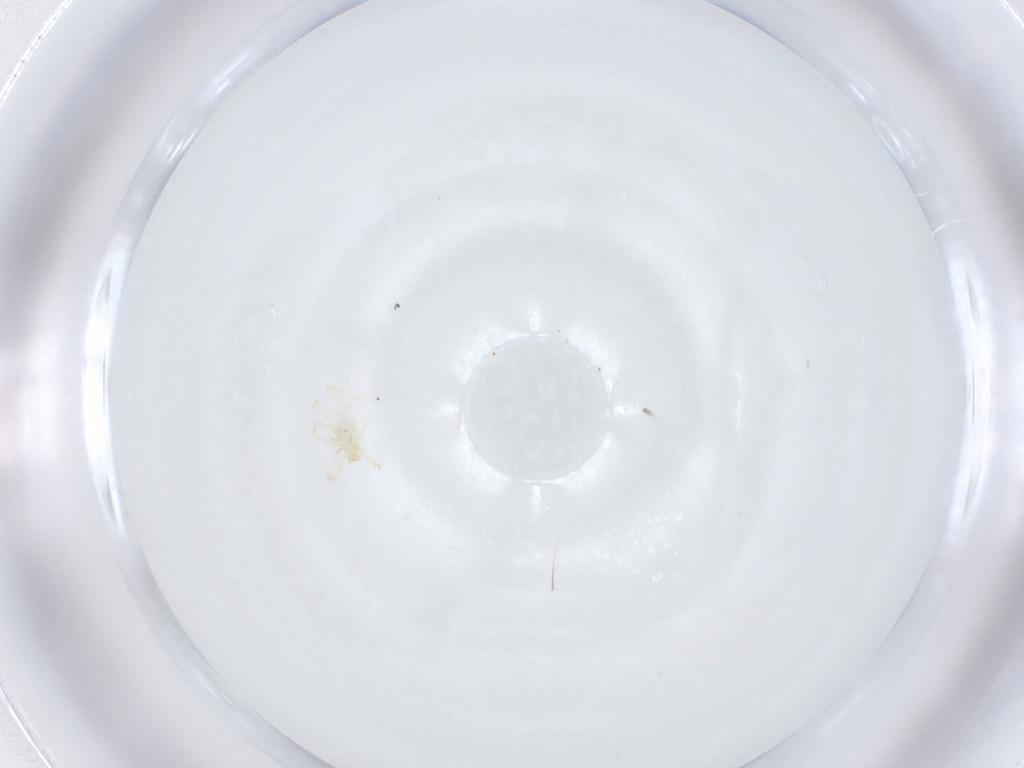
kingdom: Animalia
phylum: Arthropoda
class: Arachnida
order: Trombidiformes
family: Erythraeidae
